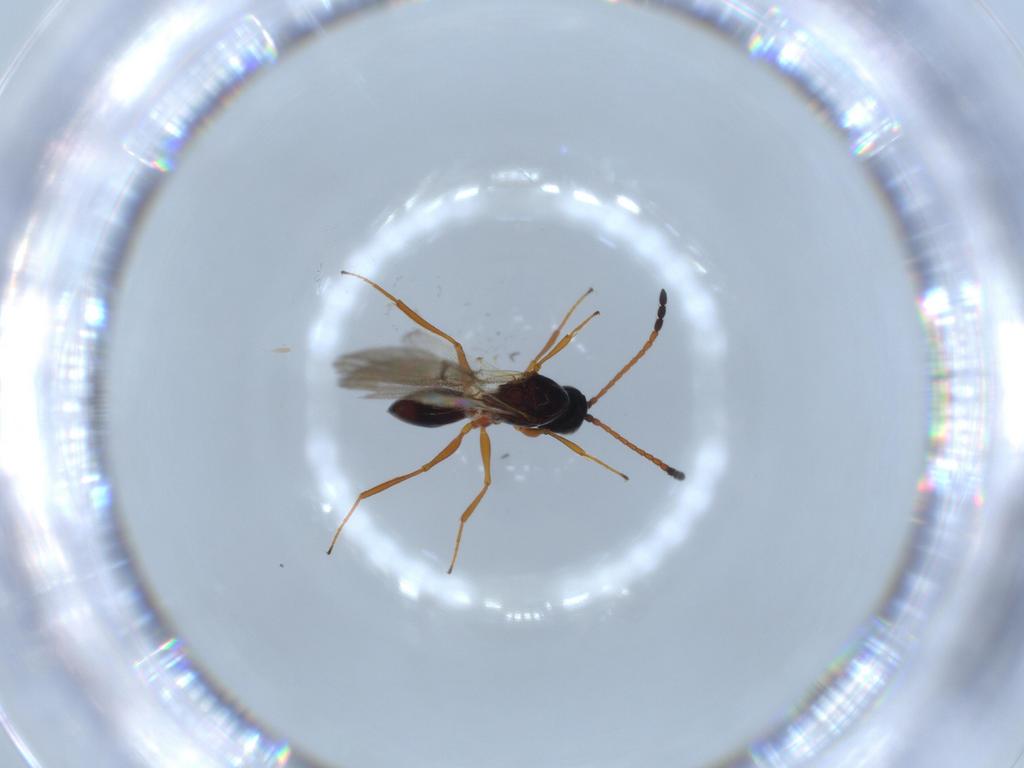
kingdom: Animalia
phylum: Arthropoda
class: Insecta
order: Hymenoptera
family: Figitidae
